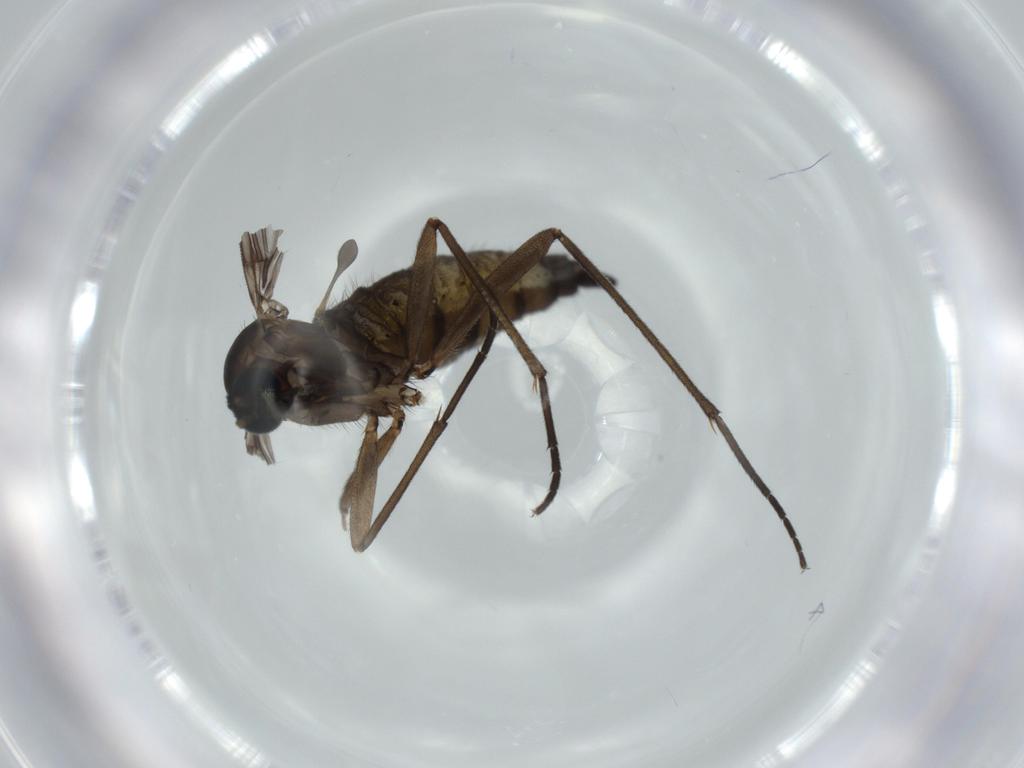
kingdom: Animalia
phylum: Arthropoda
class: Insecta
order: Diptera
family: Sciaridae
